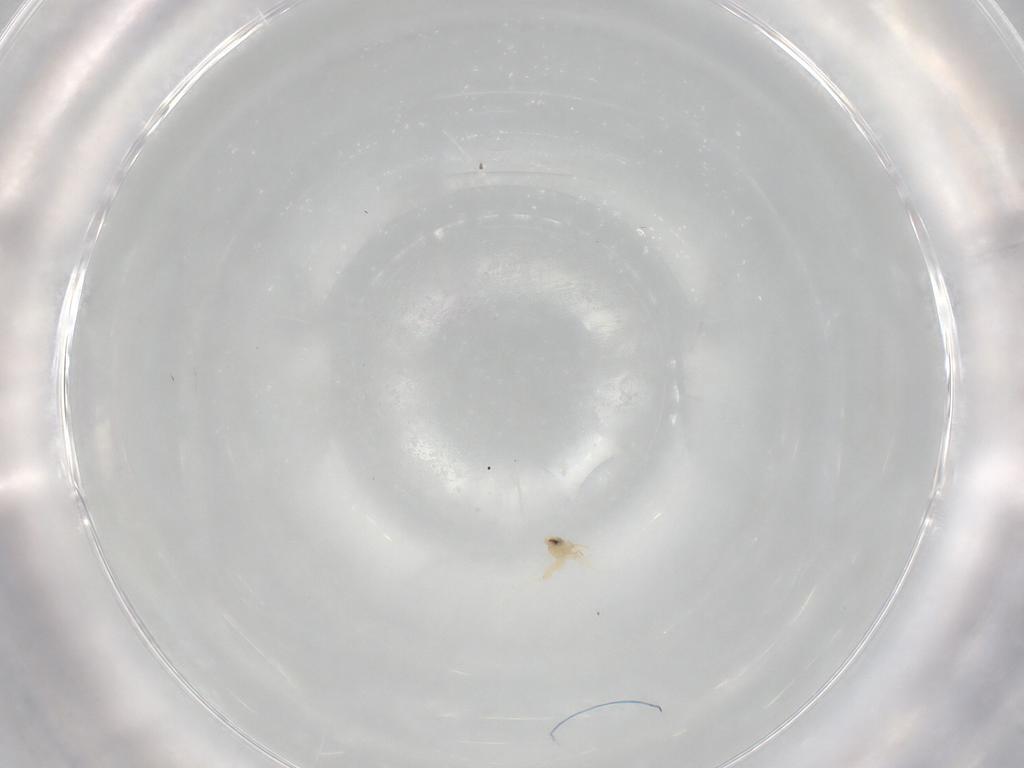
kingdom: Animalia
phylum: Arthropoda
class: Insecta
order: Hemiptera
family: Aleyrodidae
